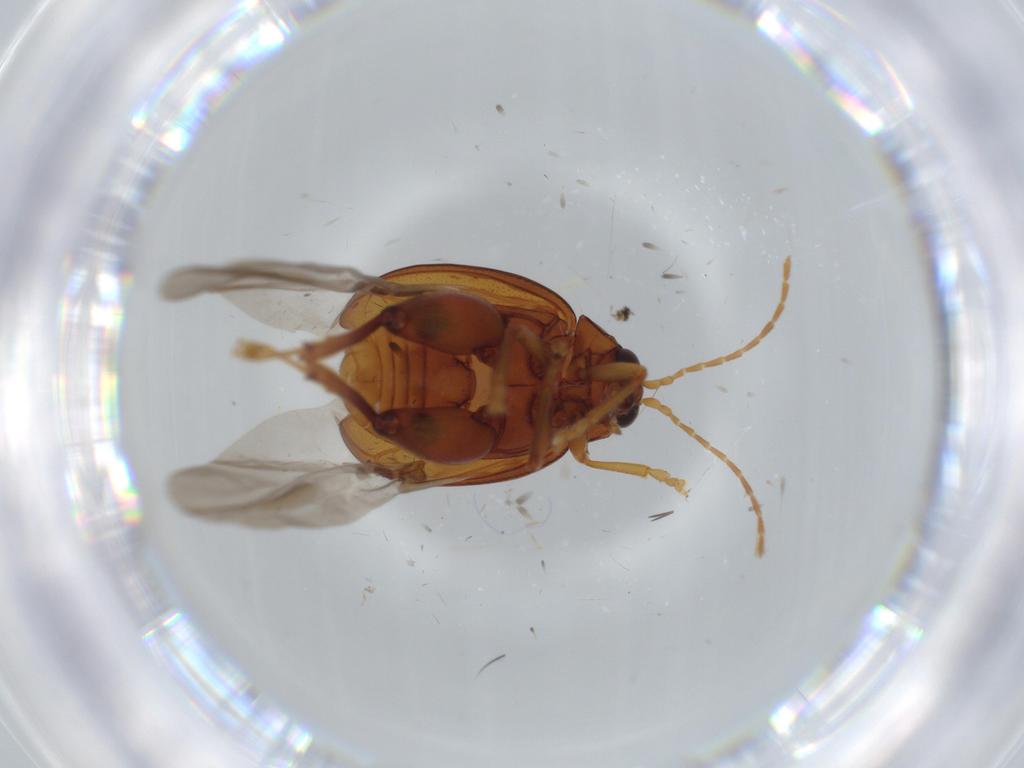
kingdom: Animalia
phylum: Arthropoda
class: Insecta
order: Coleoptera
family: Chrysomelidae
